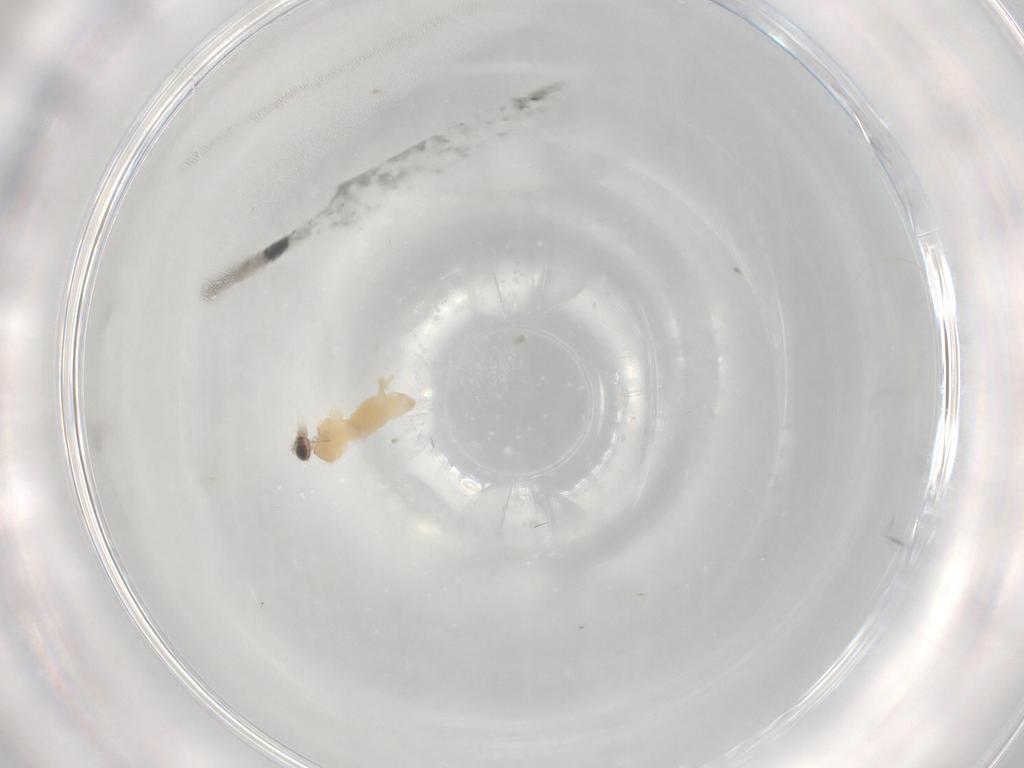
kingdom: Animalia
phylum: Arthropoda
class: Insecta
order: Diptera
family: Cecidomyiidae
